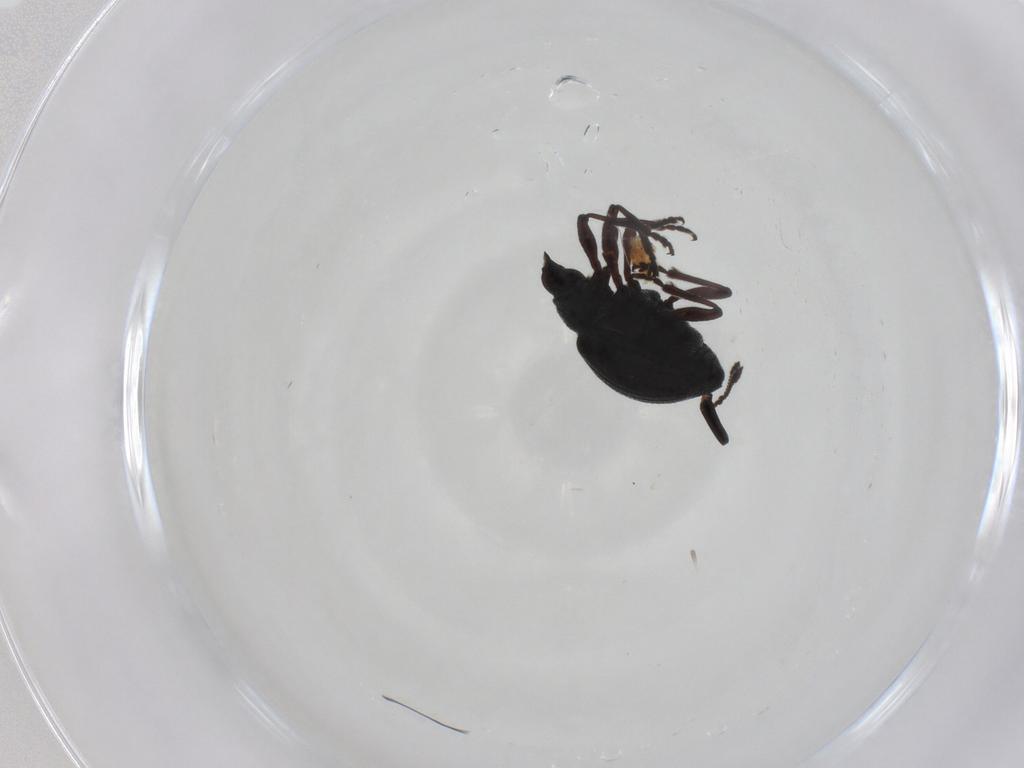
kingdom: Animalia
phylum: Arthropoda
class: Insecta
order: Coleoptera
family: Brentidae
